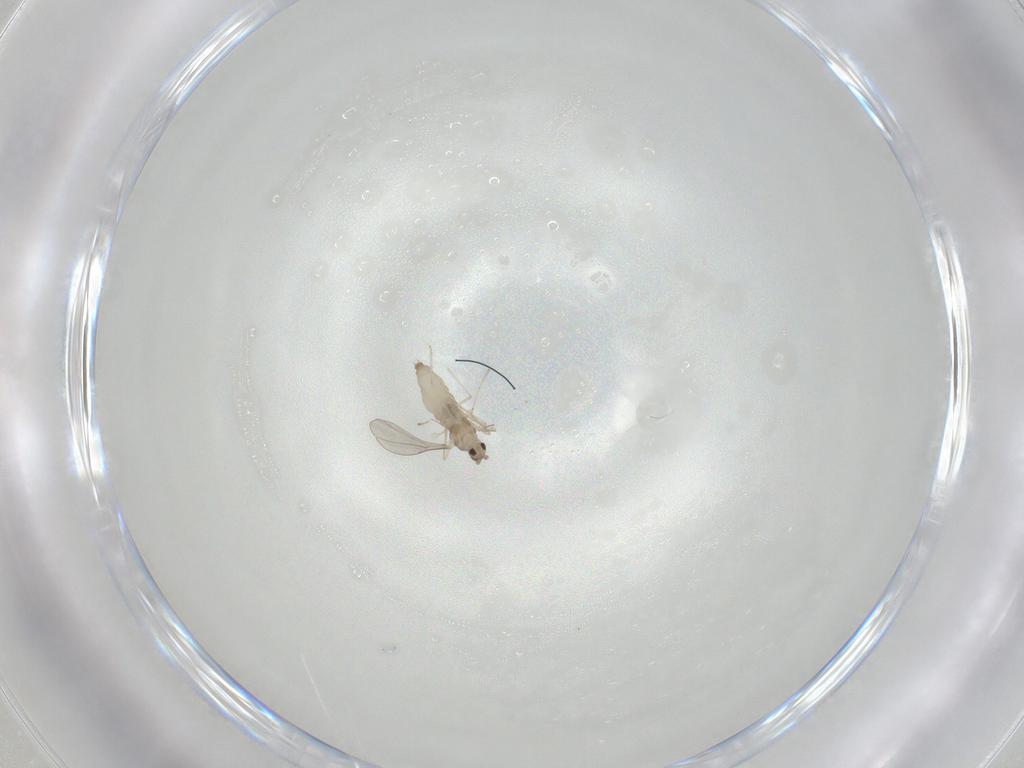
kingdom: Animalia
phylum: Arthropoda
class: Insecta
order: Diptera
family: Cecidomyiidae
